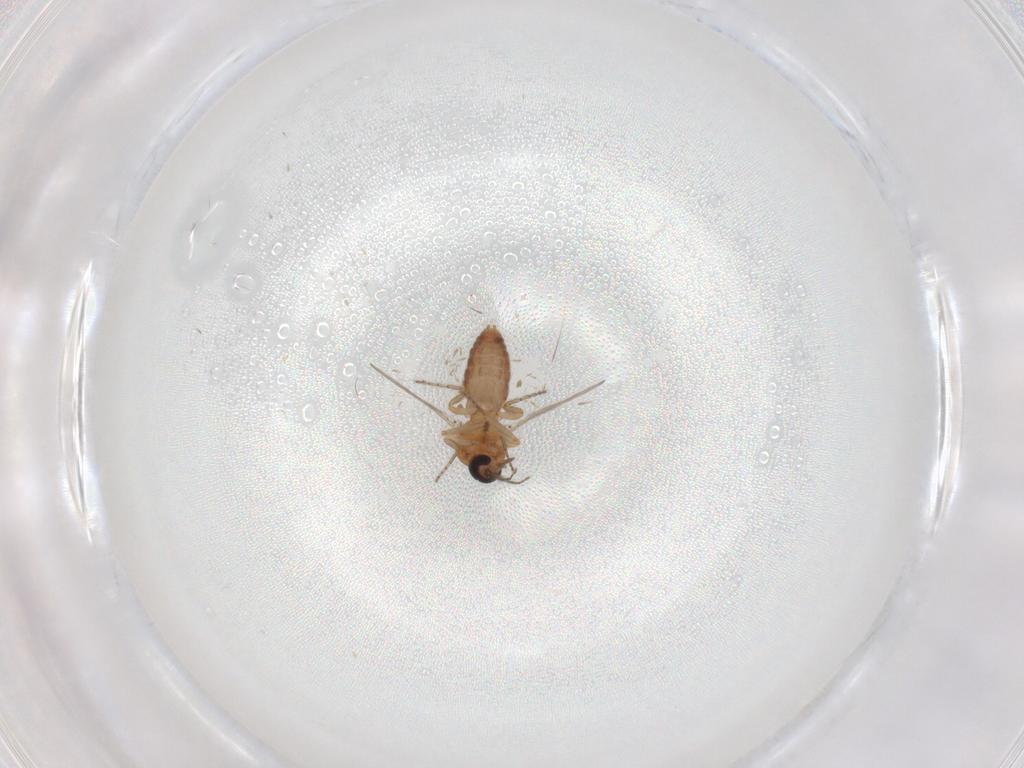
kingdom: Animalia
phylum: Arthropoda
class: Insecta
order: Diptera
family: Ceratopogonidae
